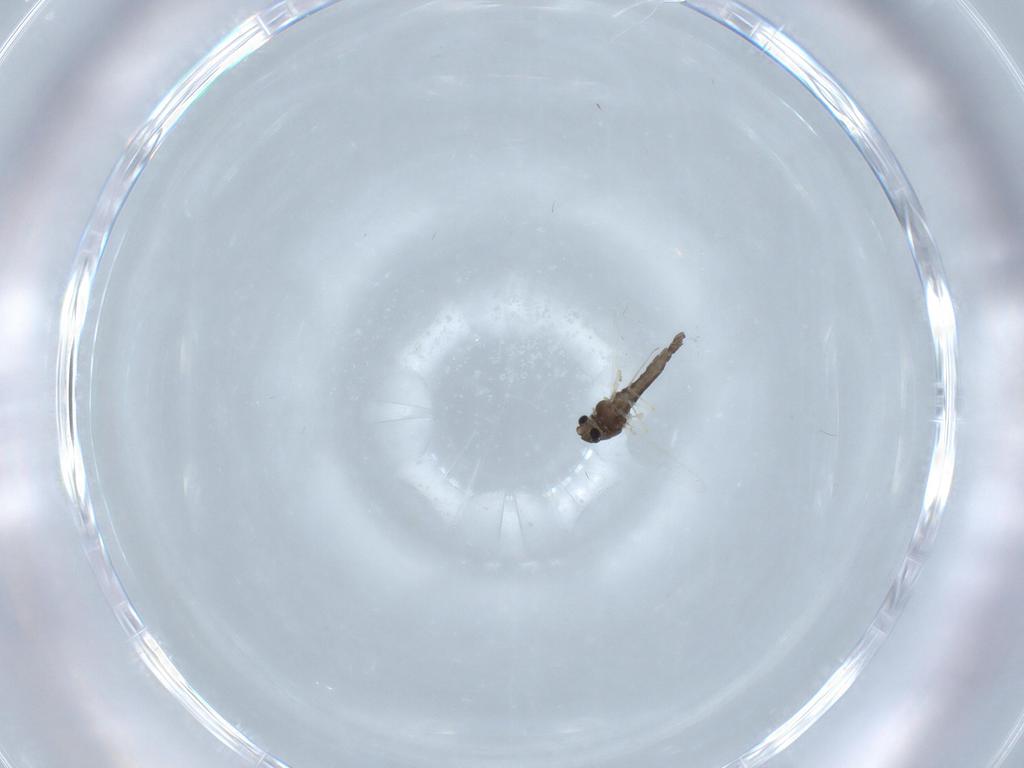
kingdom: Animalia
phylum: Arthropoda
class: Insecta
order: Diptera
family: Chironomidae
